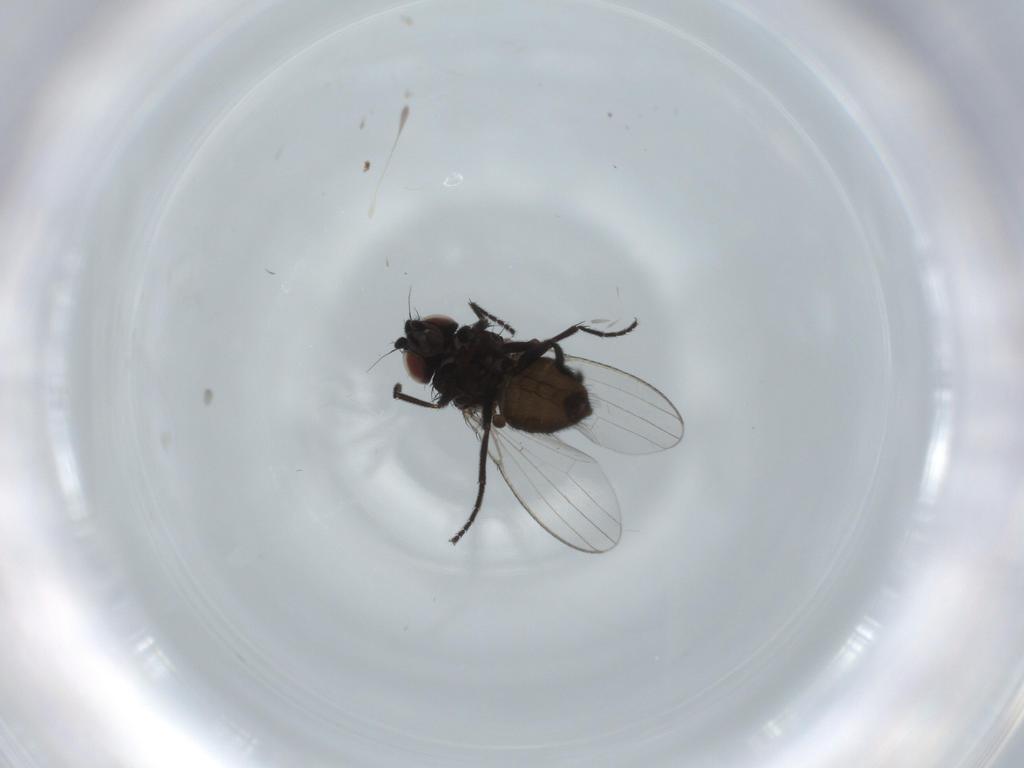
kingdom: Animalia
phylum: Arthropoda
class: Insecta
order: Diptera
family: Milichiidae
